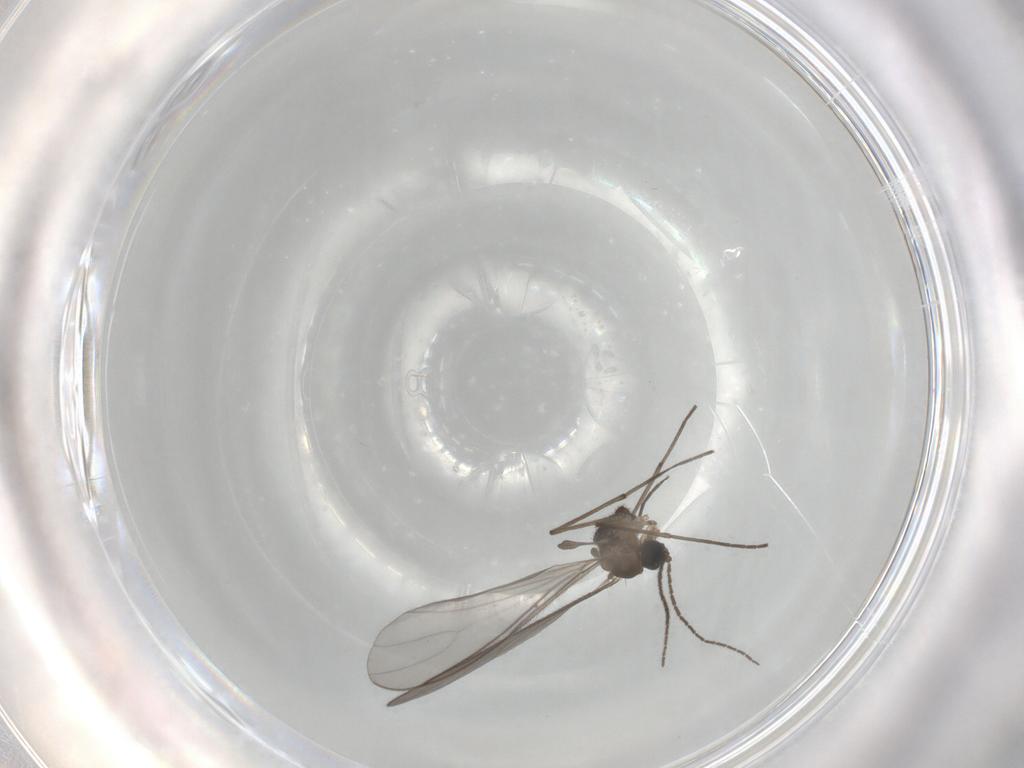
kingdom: Animalia
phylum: Arthropoda
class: Insecta
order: Diptera
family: Sciaridae
